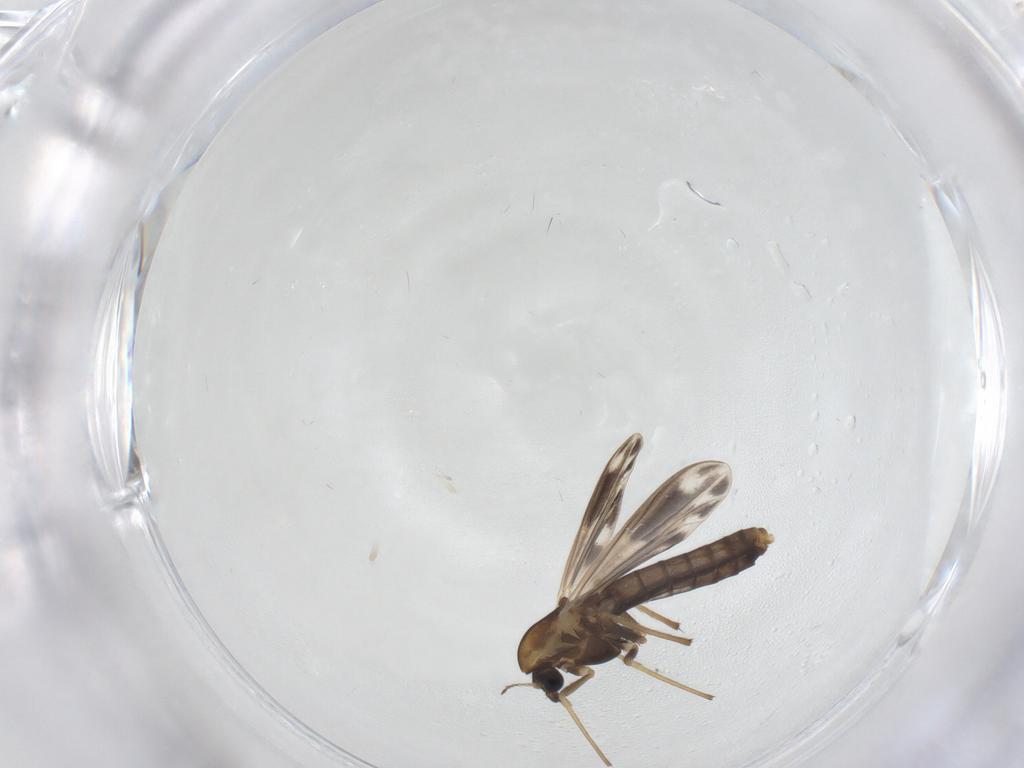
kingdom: Animalia
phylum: Arthropoda
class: Insecta
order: Diptera
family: Chironomidae
